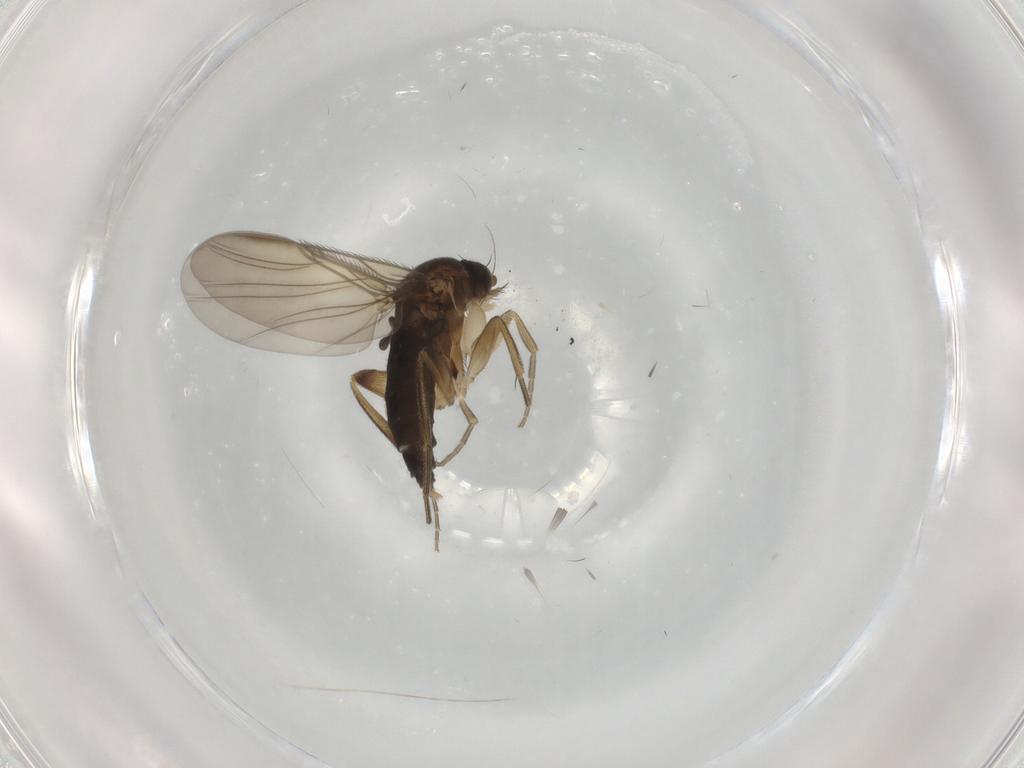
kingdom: Animalia
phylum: Arthropoda
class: Insecta
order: Diptera
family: Phoridae
